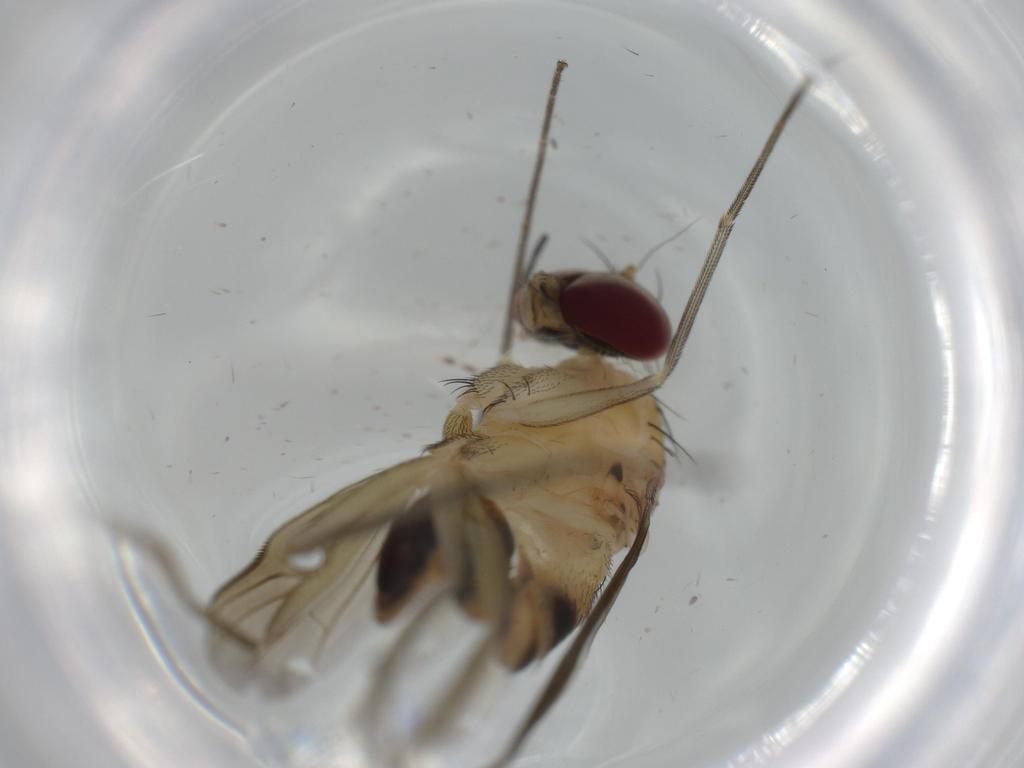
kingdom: Animalia
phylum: Arthropoda
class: Insecta
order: Diptera
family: Dolichopodidae
